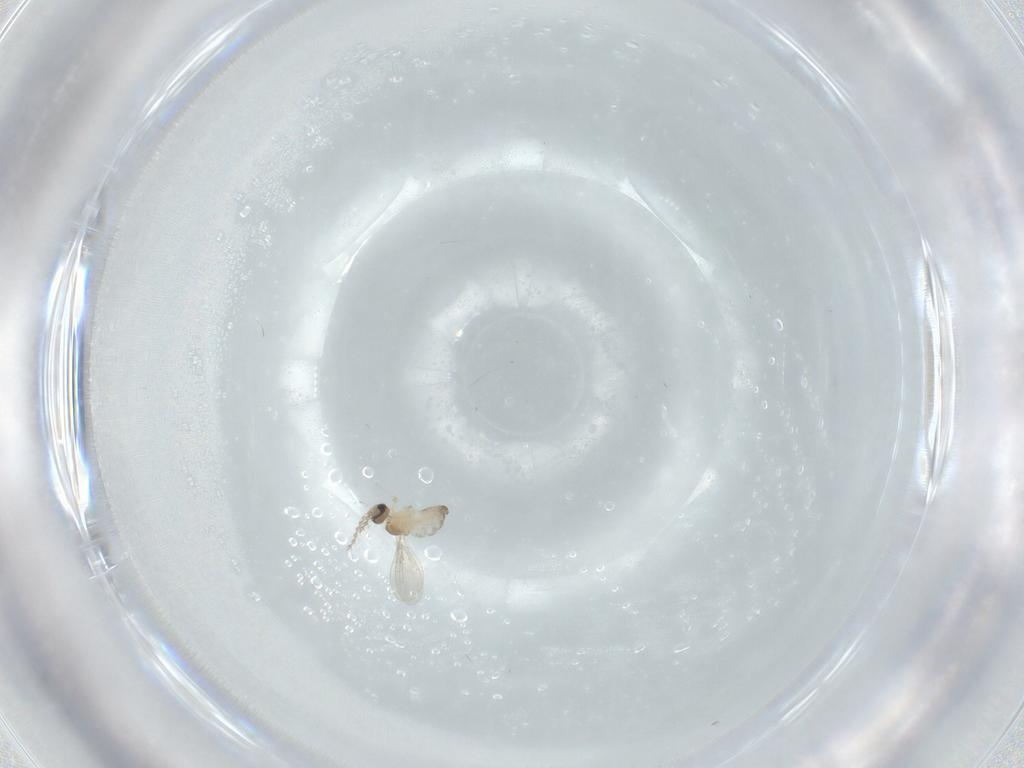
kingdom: Animalia
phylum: Arthropoda
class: Insecta
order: Diptera
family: Cecidomyiidae
